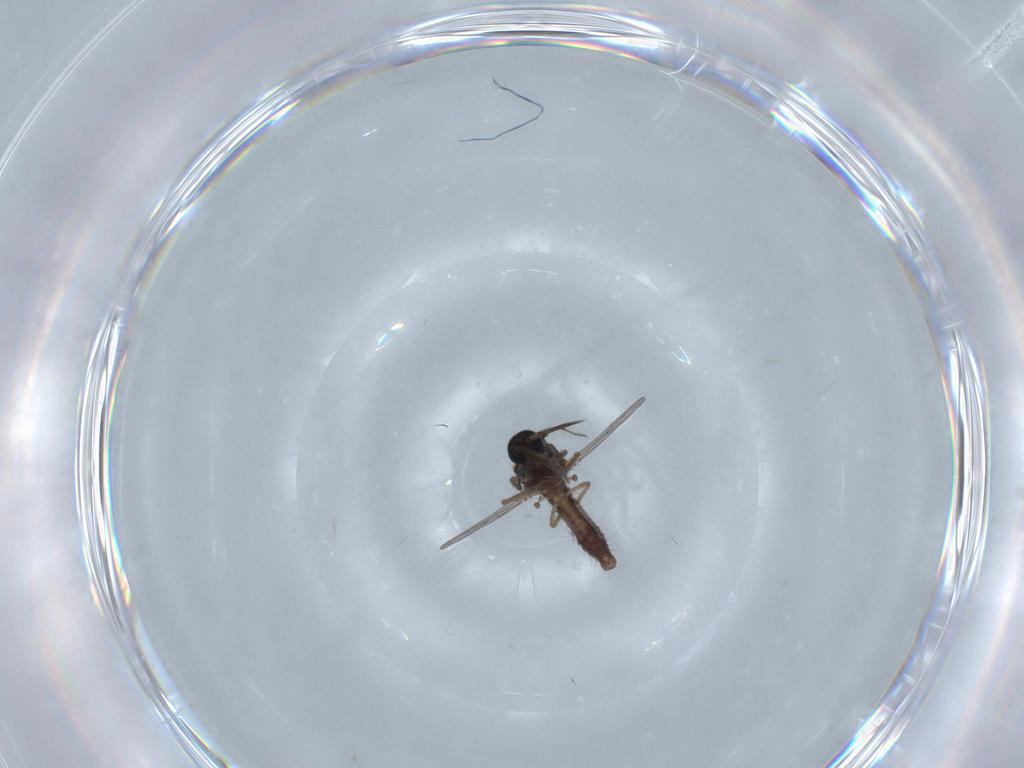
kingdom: Animalia
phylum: Arthropoda
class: Insecta
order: Diptera
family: Ceratopogonidae
